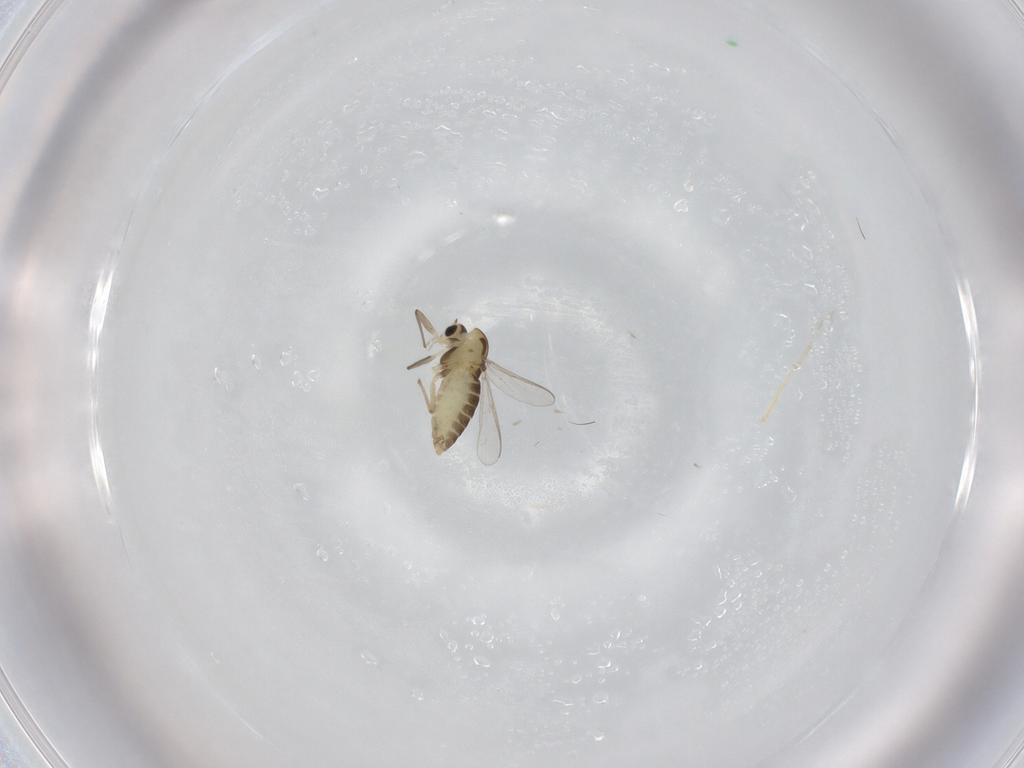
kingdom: Animalia
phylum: Arthropoda
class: Insecta
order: Diptera
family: Chironomidae
